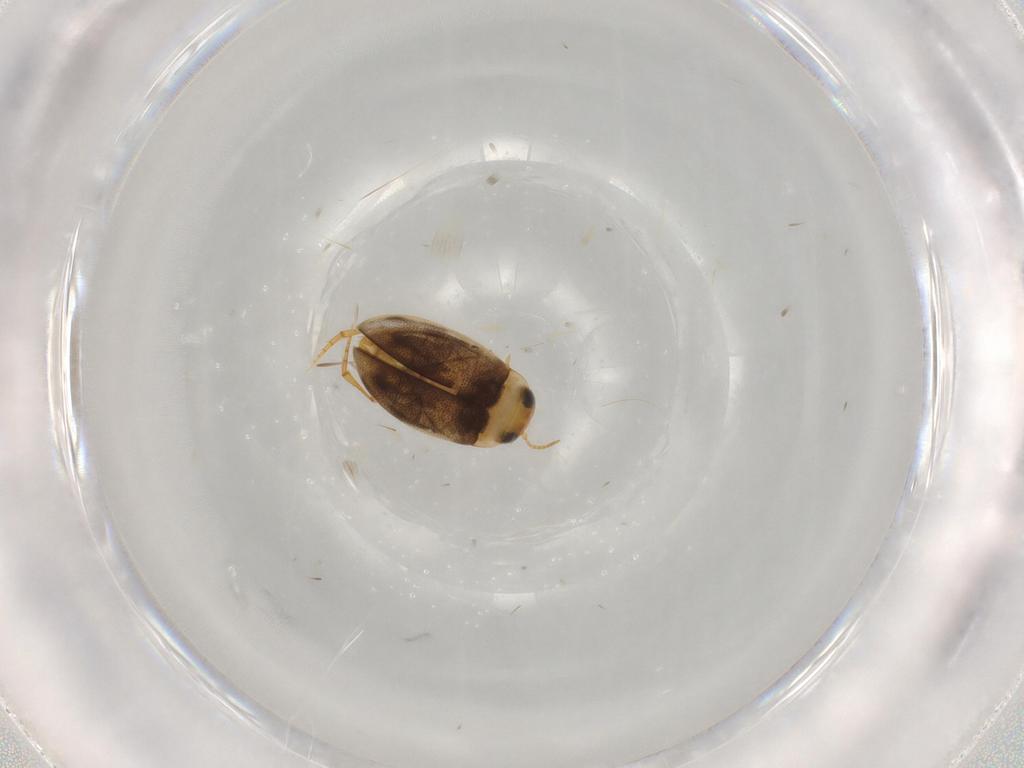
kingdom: Animalia
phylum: Arthropoda
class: Insecta
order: Coleoptera
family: Dytiscidae
